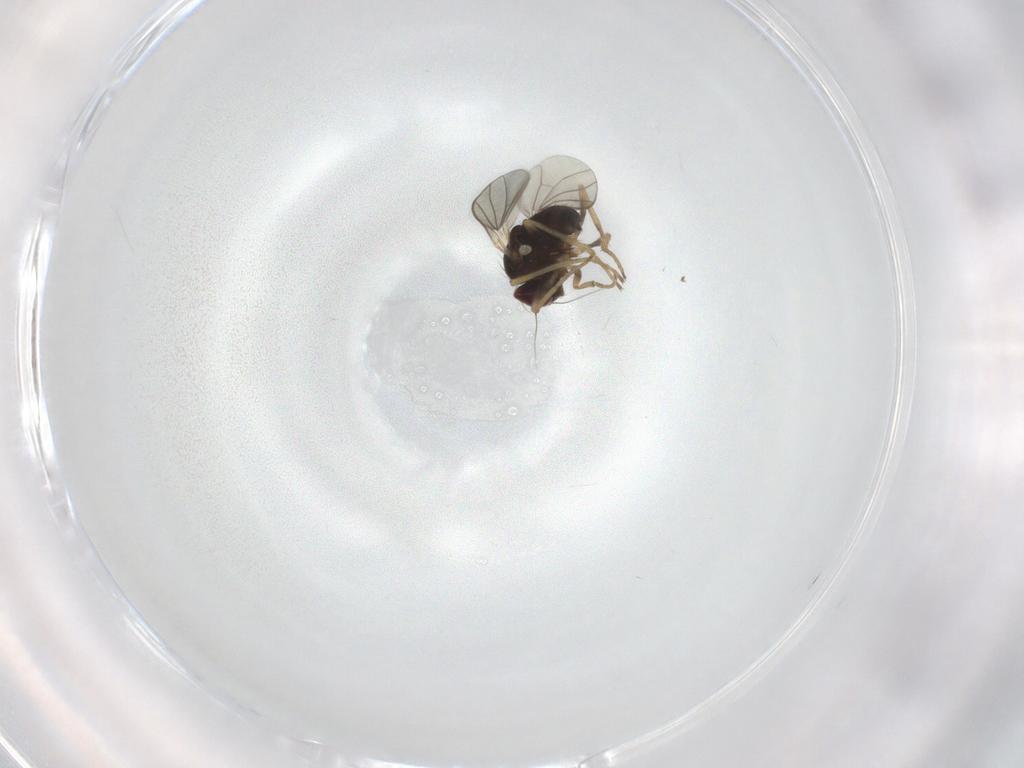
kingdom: Animalia
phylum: Arthropoda
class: Insecta
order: Diptera
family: Dolichopodidae
